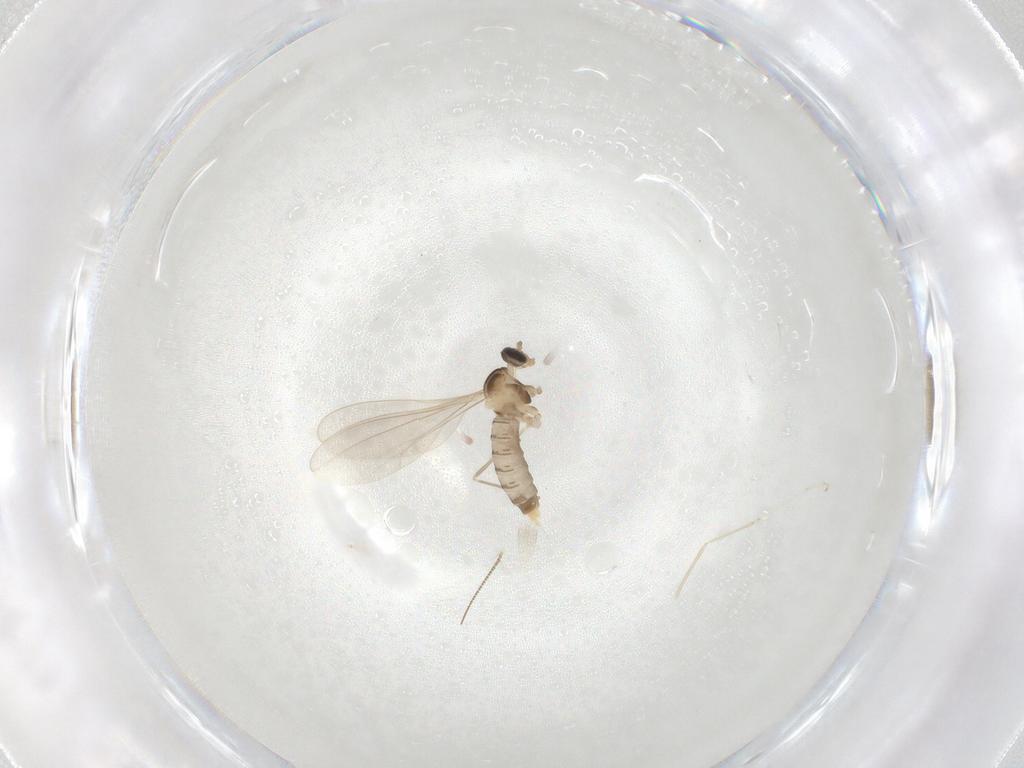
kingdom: Animalia
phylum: Arthropoda
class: Insecta
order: Diptera
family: Cecidomyiidae
